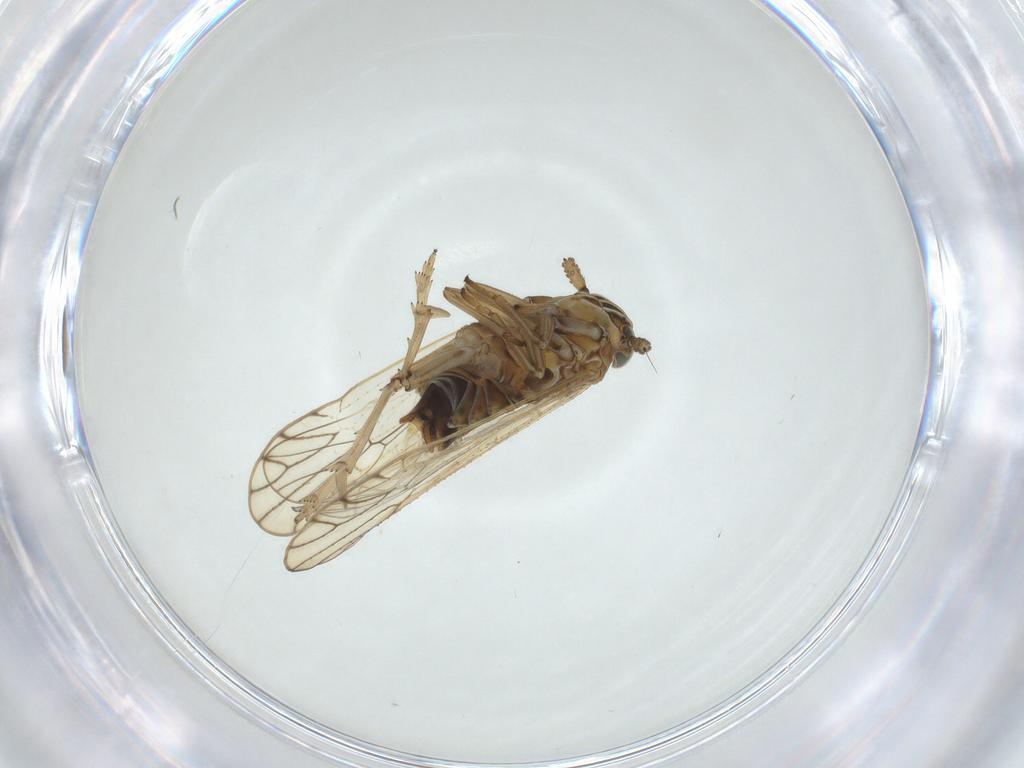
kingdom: Animalia
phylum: Arthropoda
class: Insecta
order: Hemiptera
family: Delphacidae
